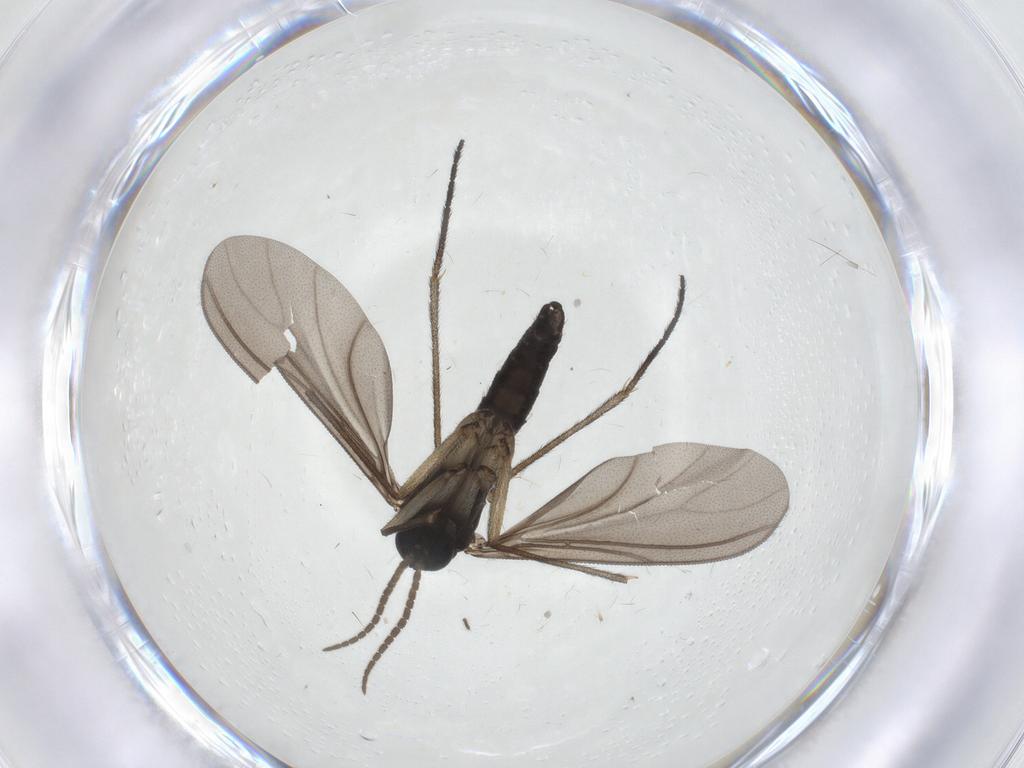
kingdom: Animalia
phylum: Arthropoda
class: Insecta
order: Diptera
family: Sciaridae
